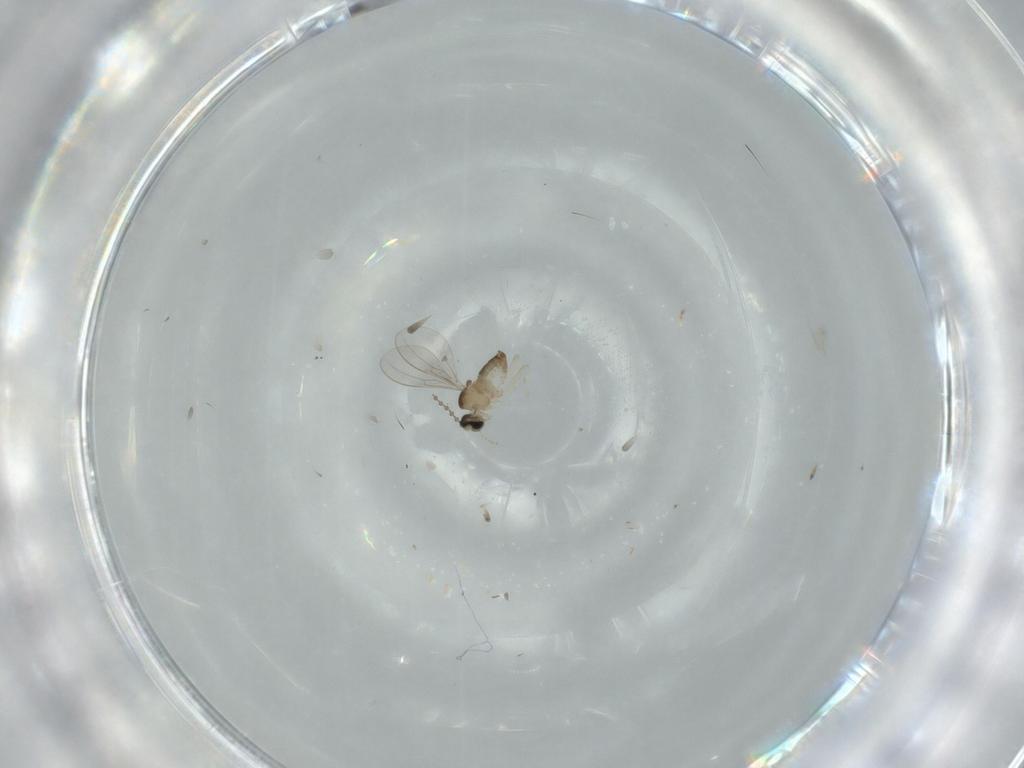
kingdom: Animalia
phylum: Arthropoda
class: Insecta
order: Diptera
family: Cecidomyiidae
